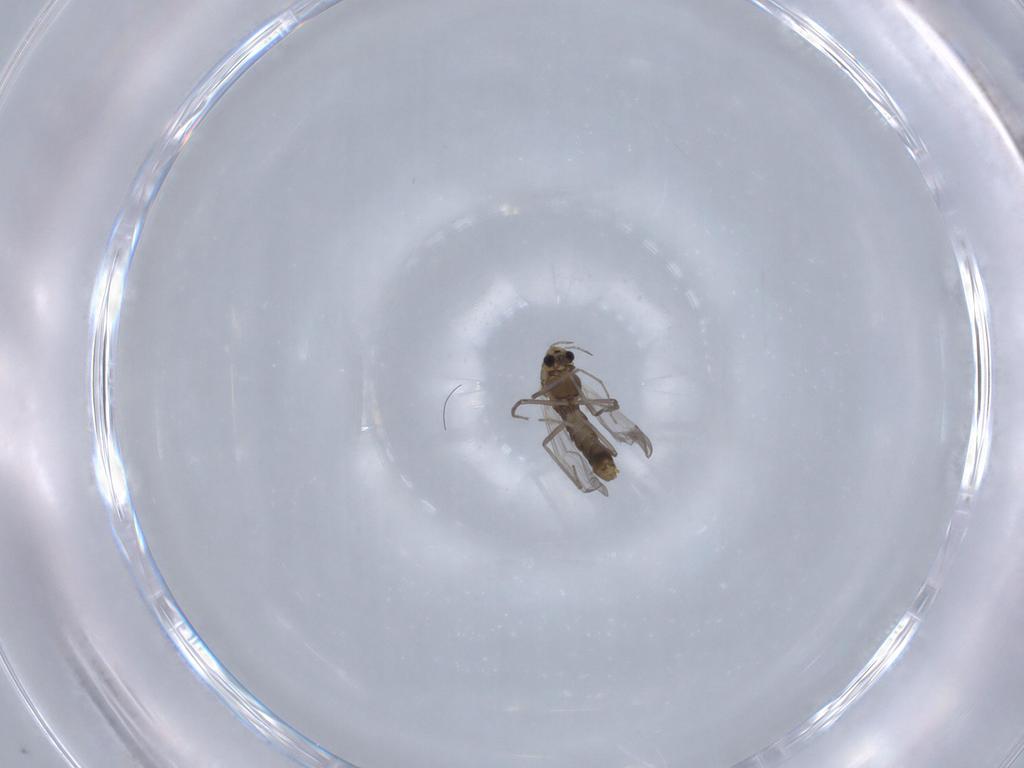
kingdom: Animalia
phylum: Arthropoda
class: Insecta
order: Diptera
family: Chironomidae
